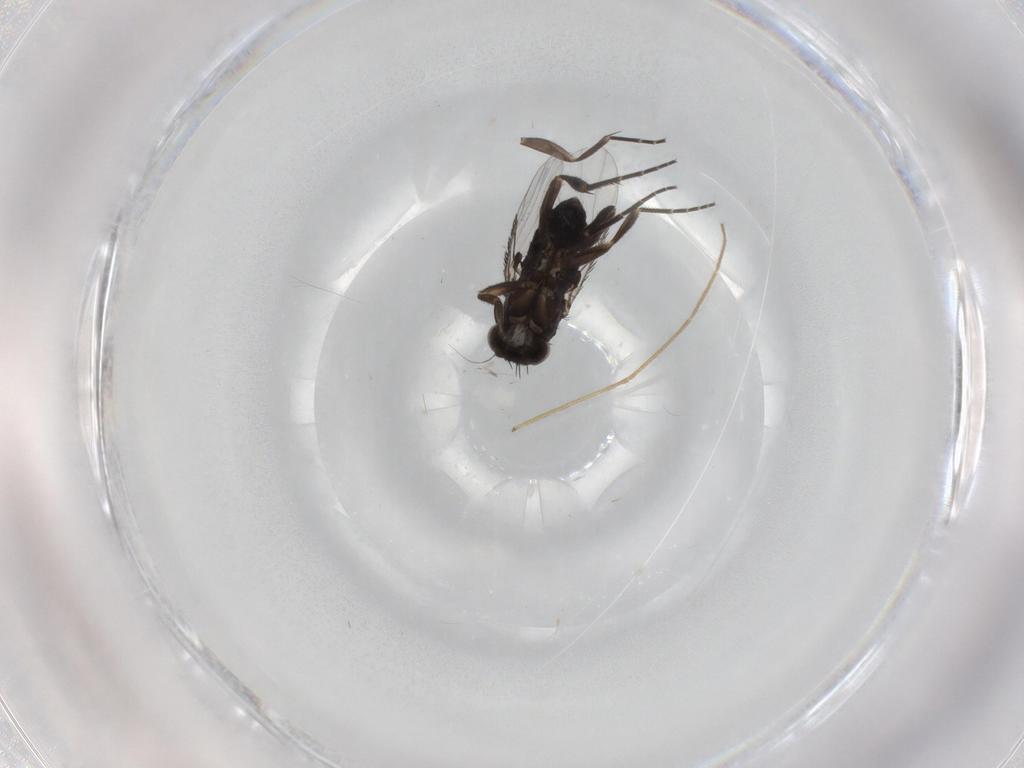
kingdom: Animalia
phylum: Arthropoda
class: Insecta
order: Diptera
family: Phoridae
